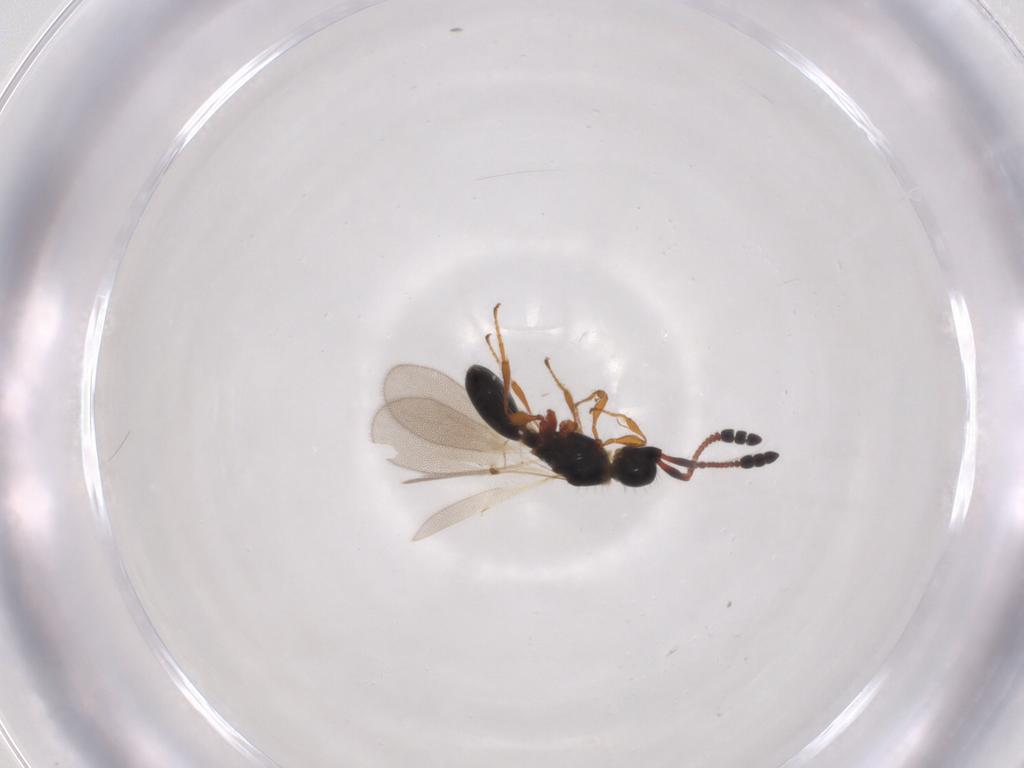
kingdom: Animalia
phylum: Arthropoda
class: Insecta
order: Hymenoptera
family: Diapriidae
